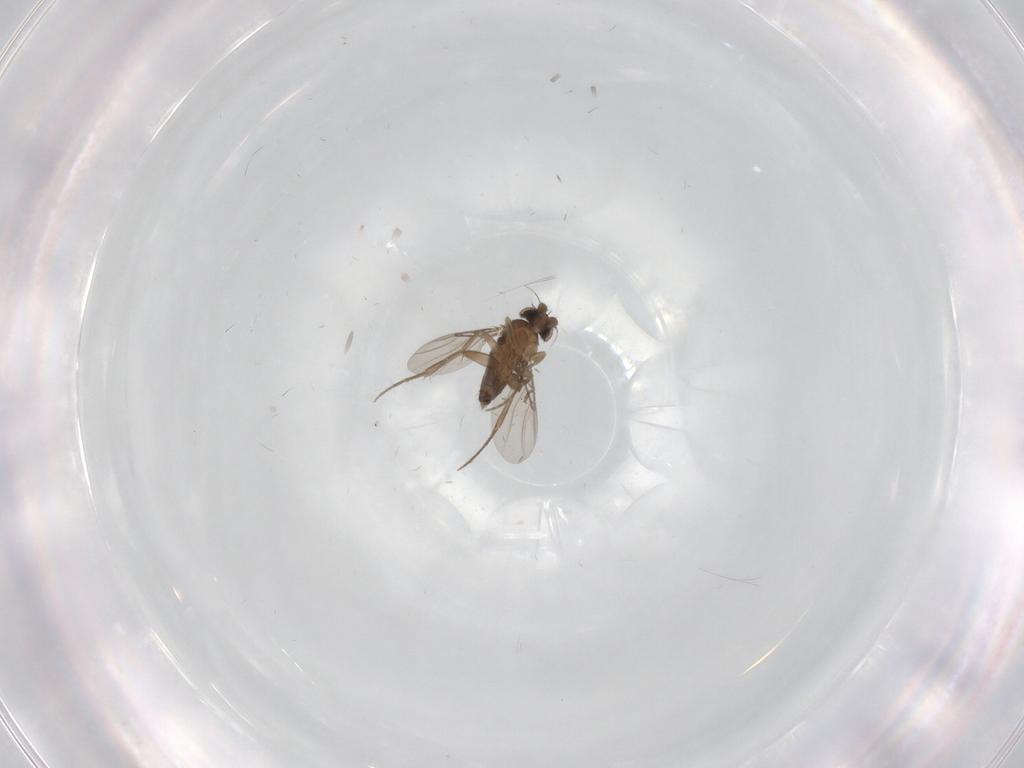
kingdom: Animalia
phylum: Arthropoda
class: Insecta
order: Diptera
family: Phoridae
